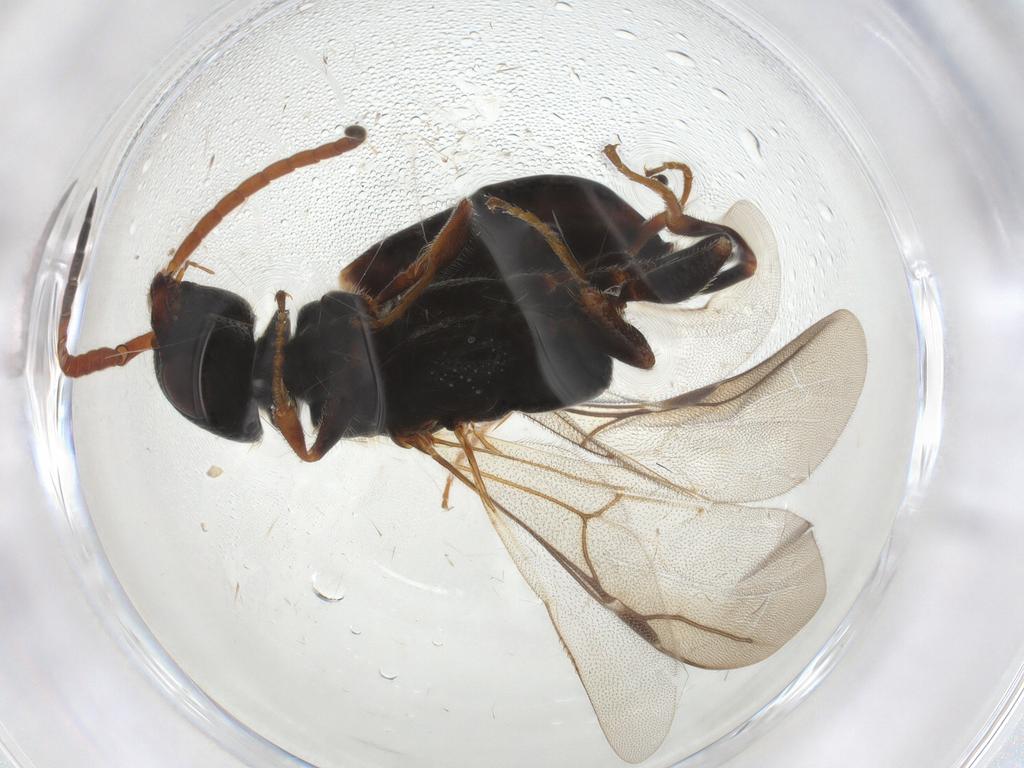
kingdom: Animalia
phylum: Arthropoda
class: Insecta
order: Hymenoptera
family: Bethylidae
